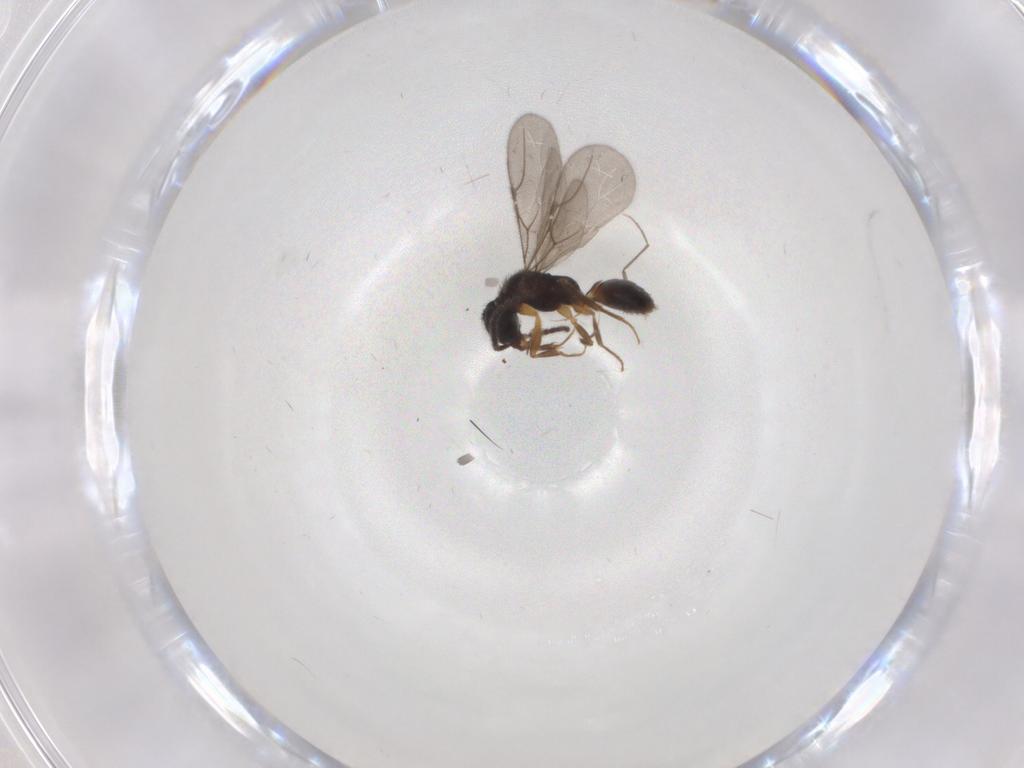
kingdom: Animalia
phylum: Arthropoda
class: Insecta
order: Hymenoptera
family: Bethylidae
